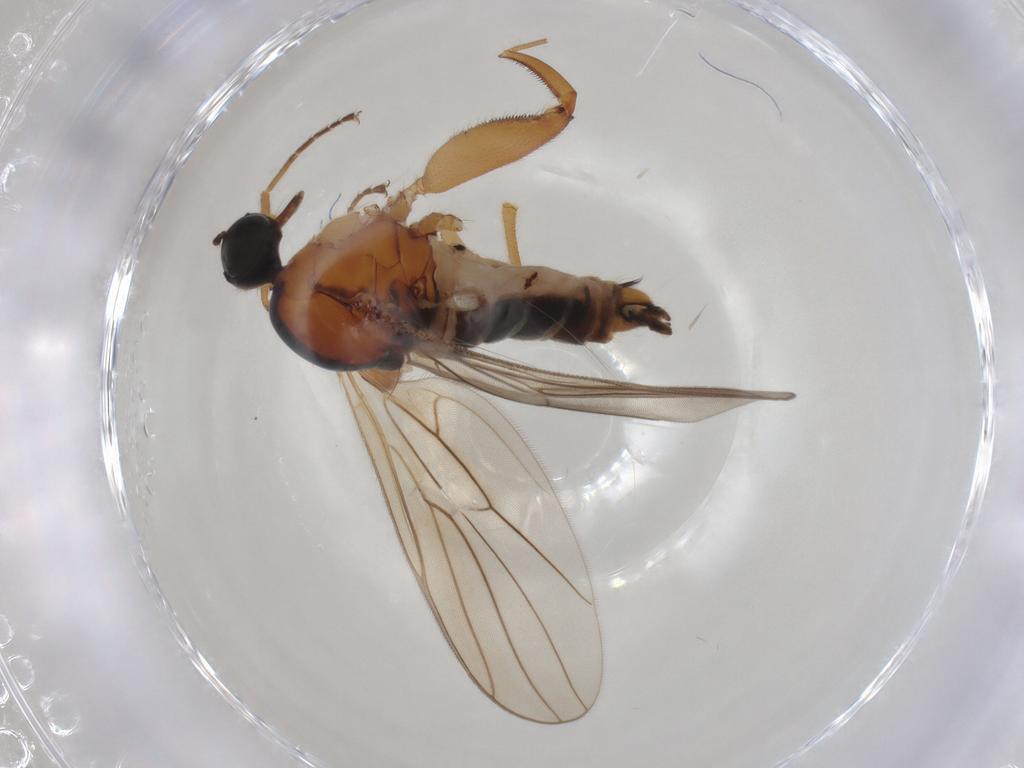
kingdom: Animalia
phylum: Arthropoda
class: Insecta
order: Diptera
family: Hybotidae
